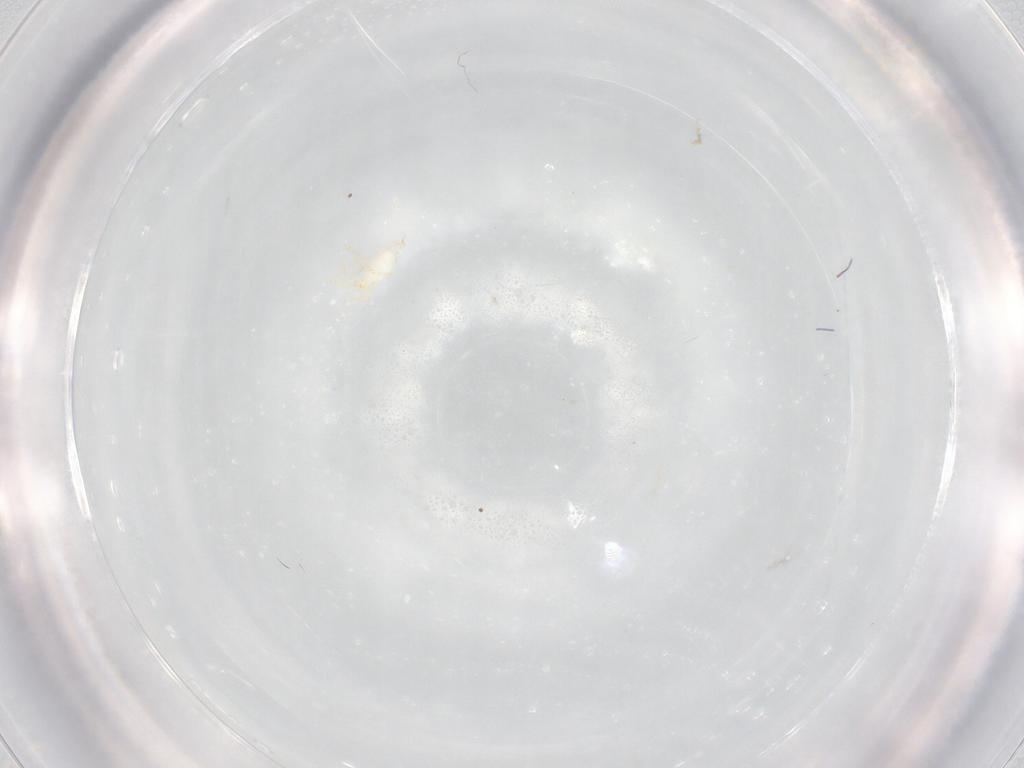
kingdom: Animalia
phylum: Arthropoda
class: Arachnida
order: Trombidiformes
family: Erythraeidae
